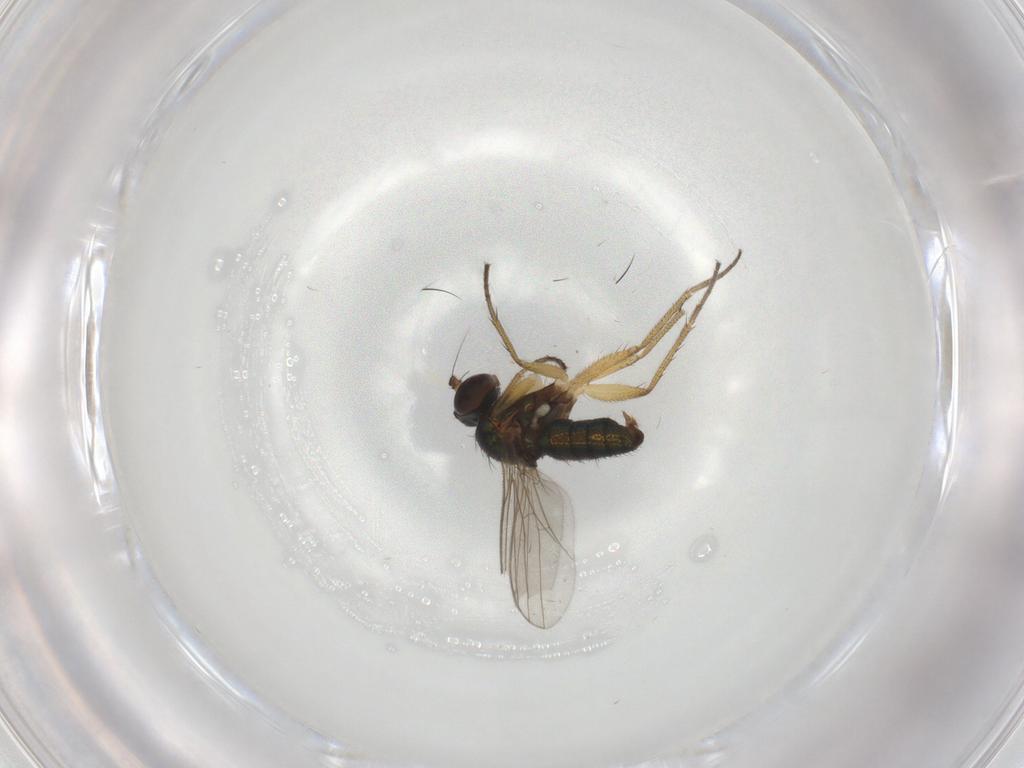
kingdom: Animalia
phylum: Arthropoda
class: Insecta
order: Diptera
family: Dolichopodidae
